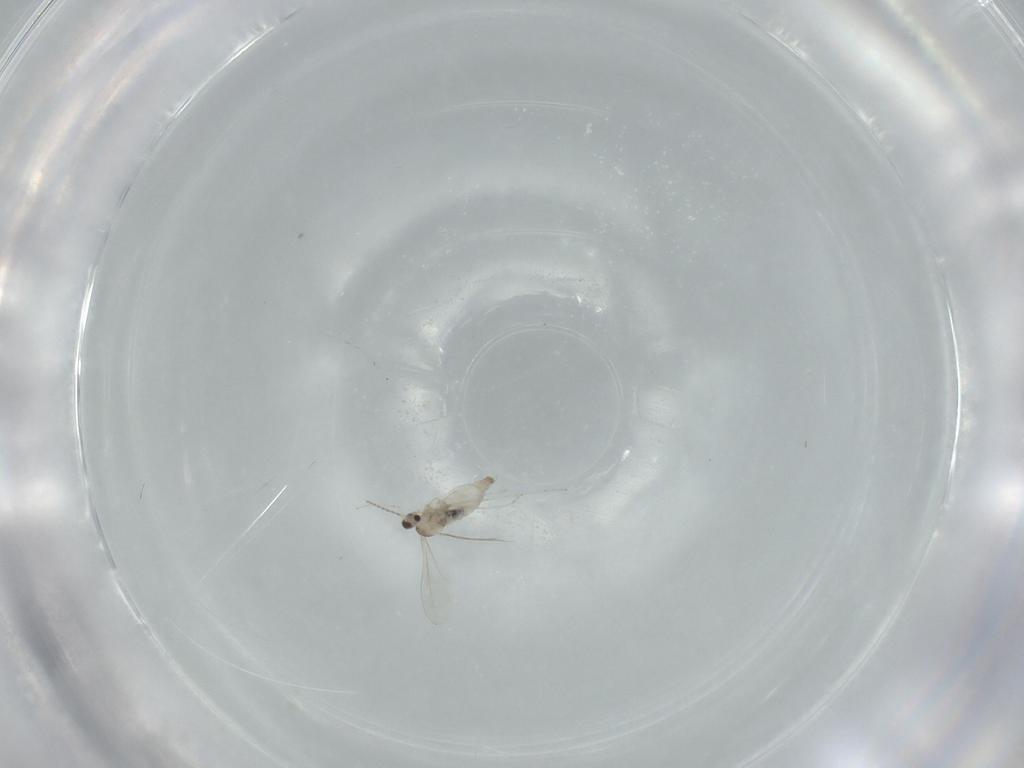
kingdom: Animalia
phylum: Arthropoda
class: Insecta
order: Diptera
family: Cecidomyiidae
